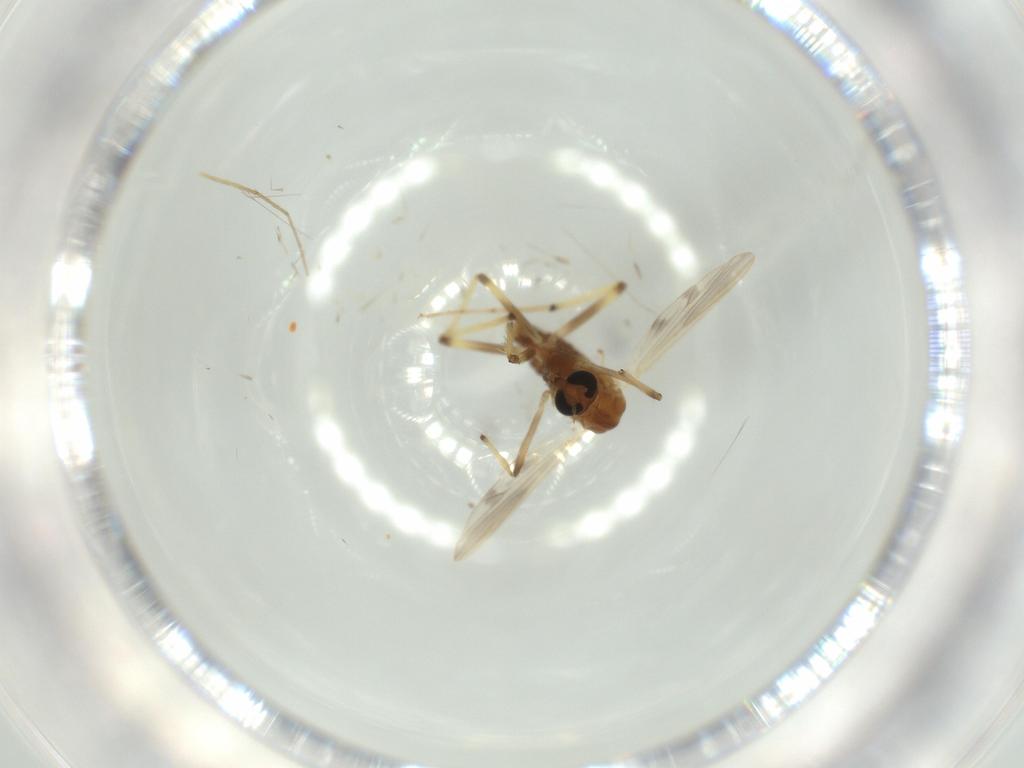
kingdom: Animalia
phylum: Arthropoda
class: Insecta
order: Diptera
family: Chironomidae
